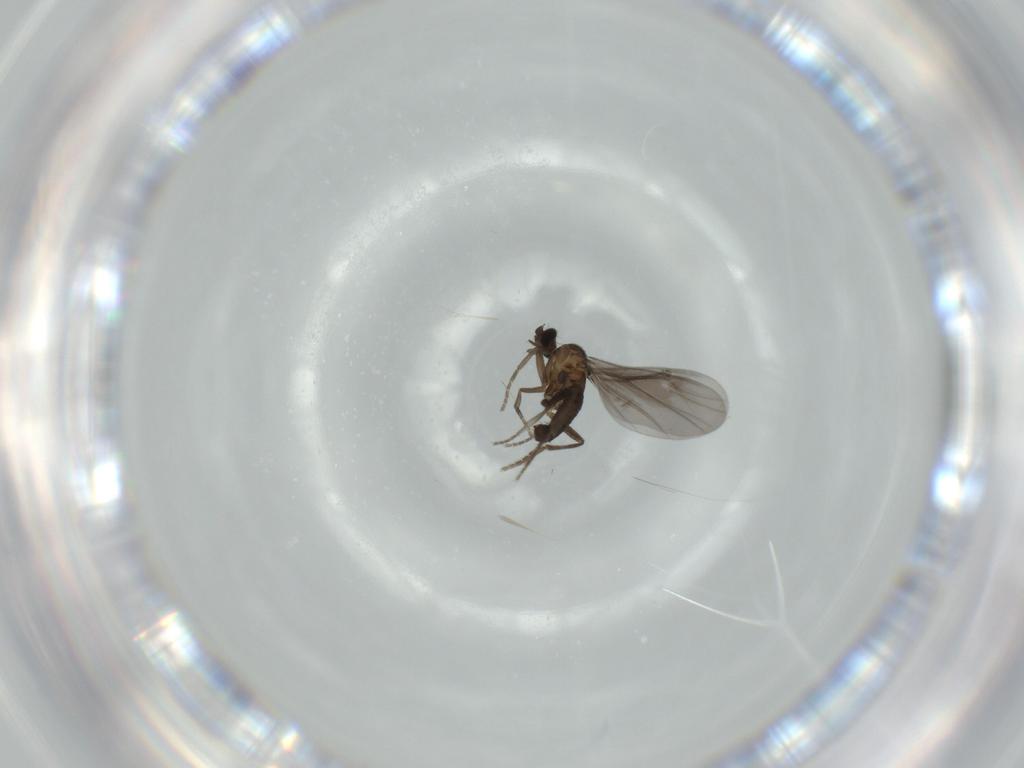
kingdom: Animalia
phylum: Arthropoda
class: Insecta
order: Diptera
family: Phoridae
